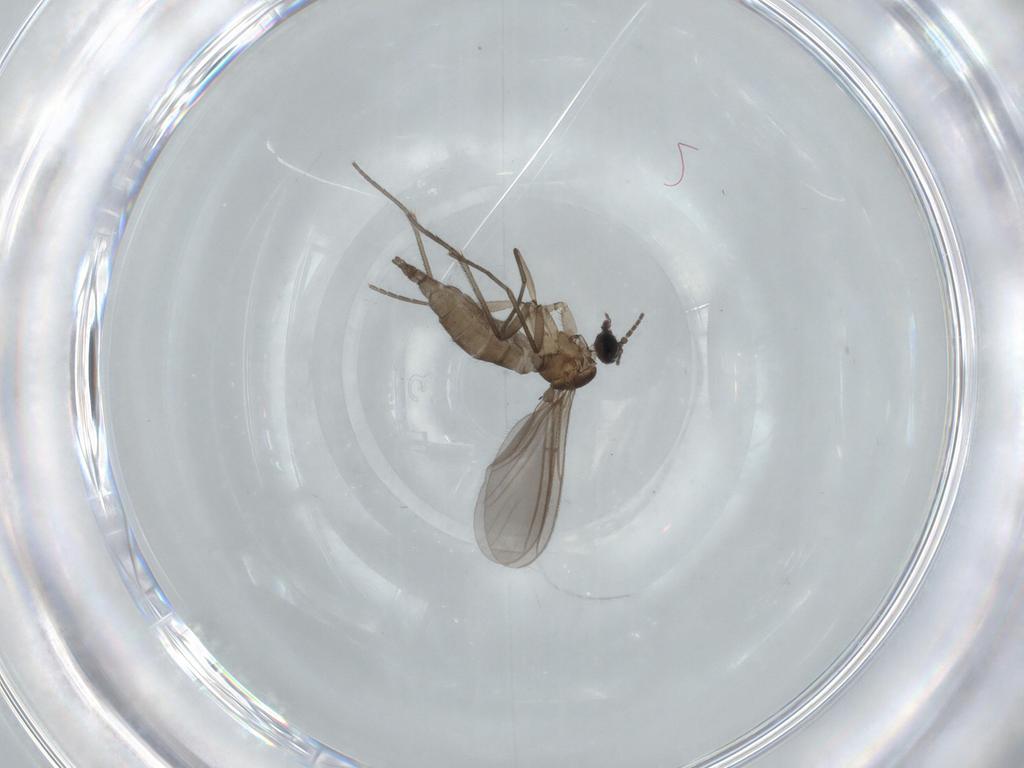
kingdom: Animalia
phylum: Arthropoda
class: Insecta
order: Diptera
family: Sciaridae
